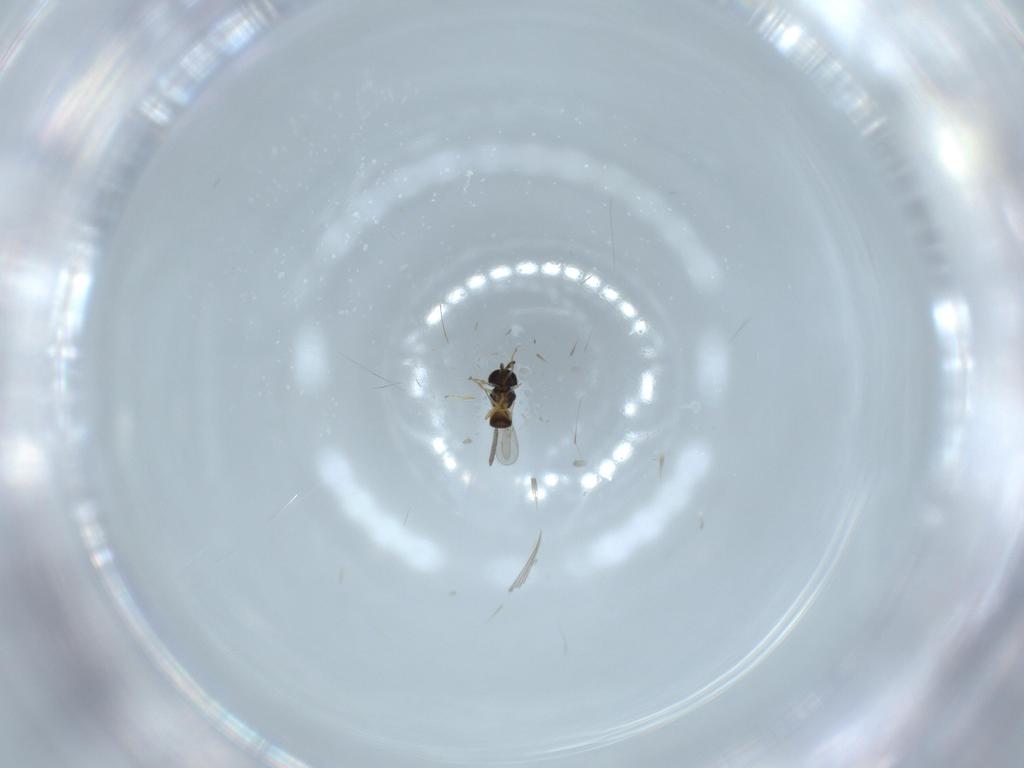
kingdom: Animalia
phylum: Arthropoda
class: Insecta
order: Hymenoptera
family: Scelionidae
